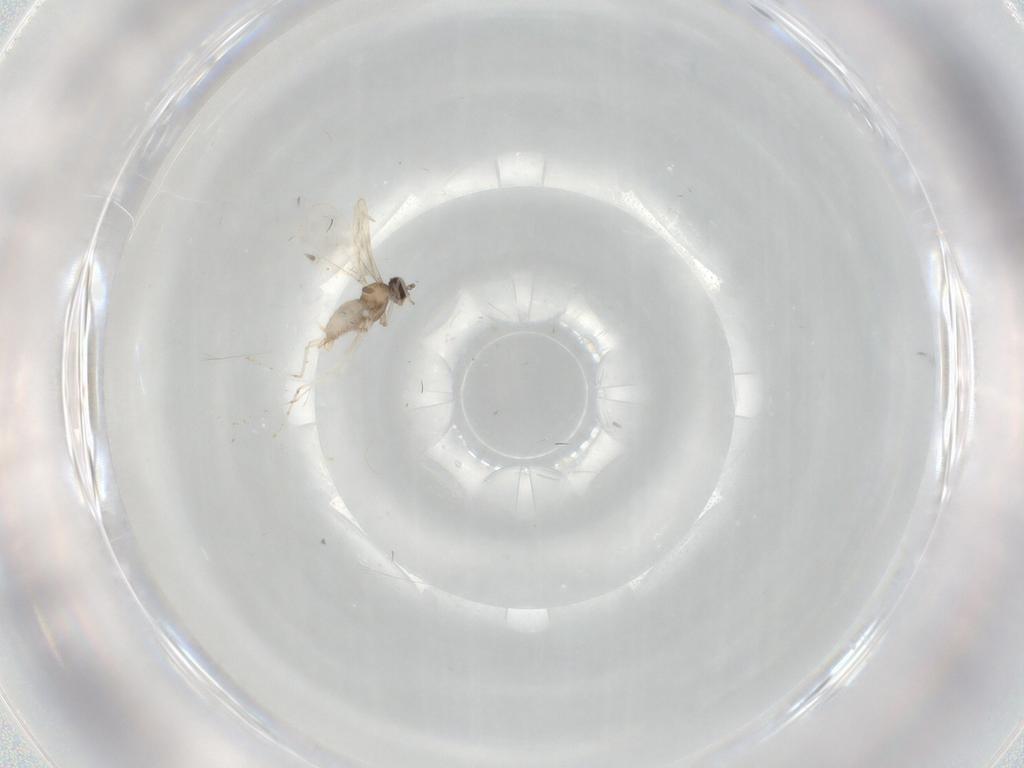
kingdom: Animalia
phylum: Arthropoda
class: Insecta
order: Diptera
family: Cecidomyiidae
